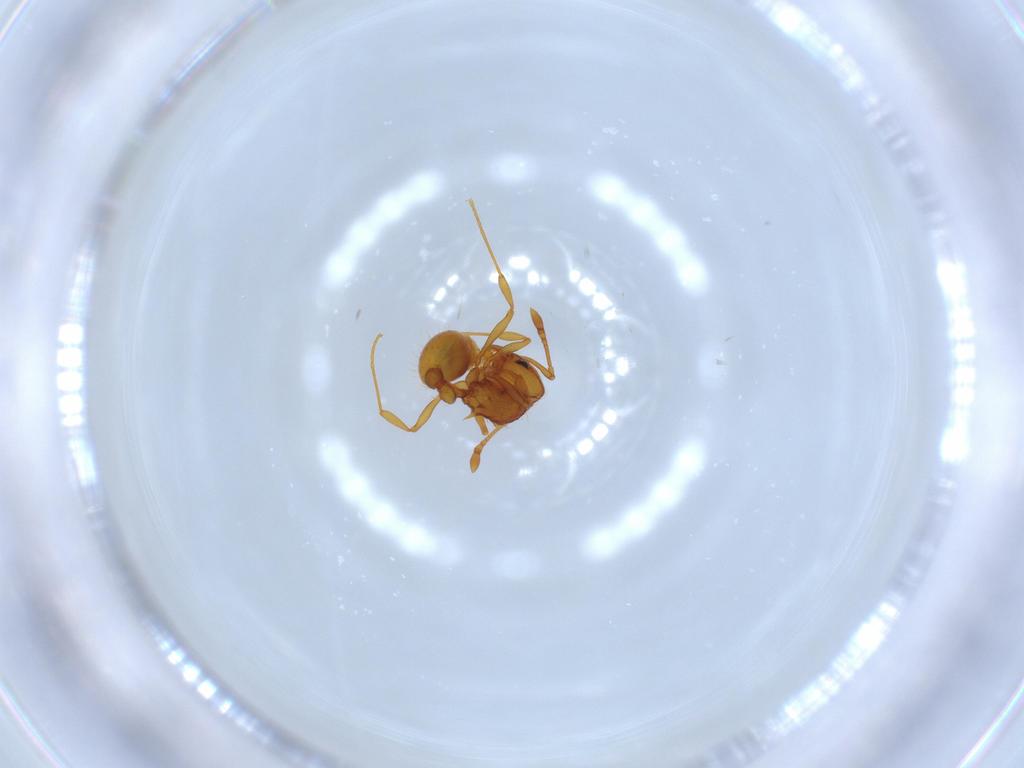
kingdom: Animalia
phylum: Arthropoda
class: Insecta
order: Hymenoptera
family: Formicidae
